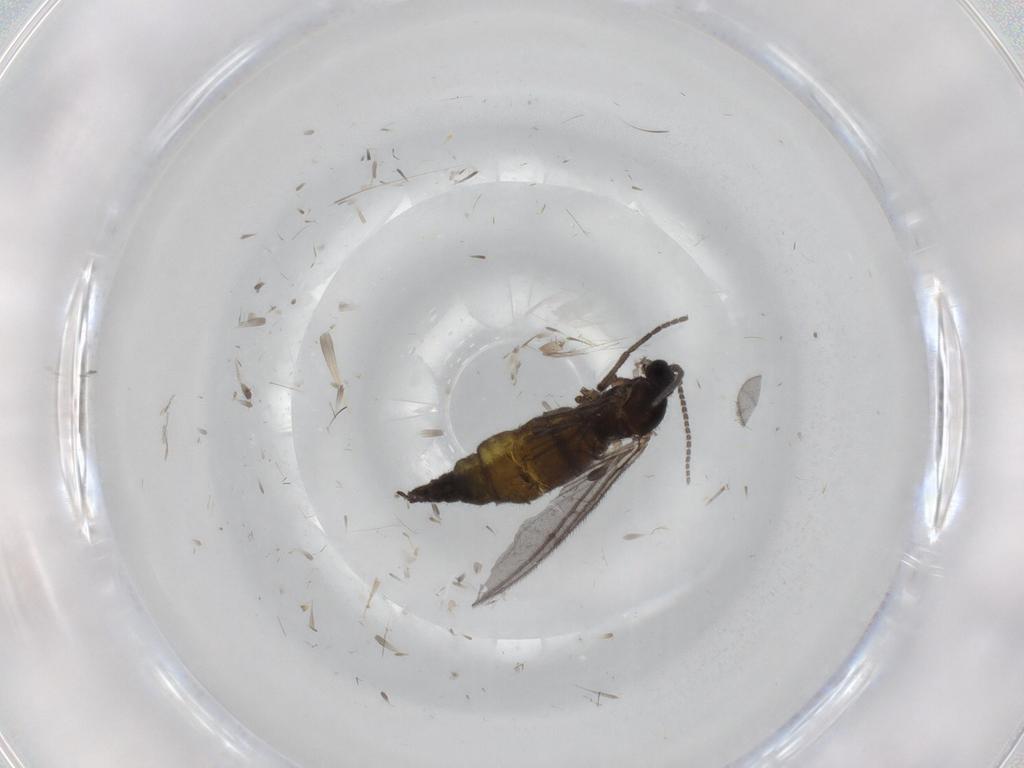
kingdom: Animalia
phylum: Arthropoda
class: Insecta
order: Diptera
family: Sciaridae
